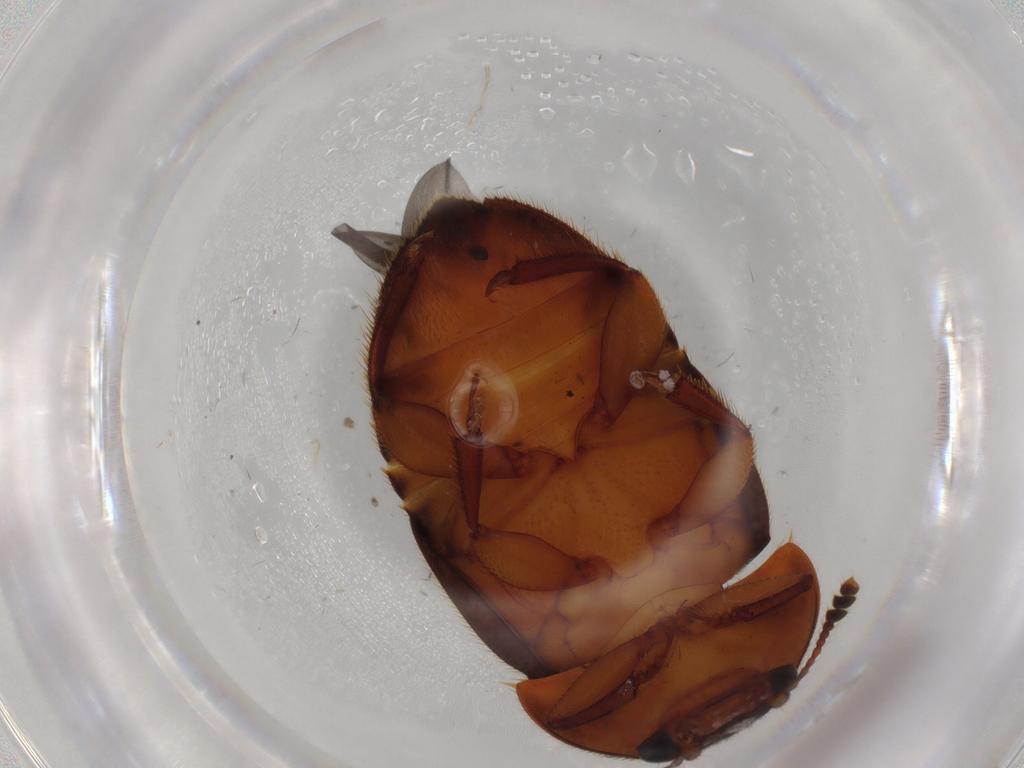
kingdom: Animalia
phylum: Arthropoda
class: Insecta
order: Coleoptera
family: Nitidulidae
